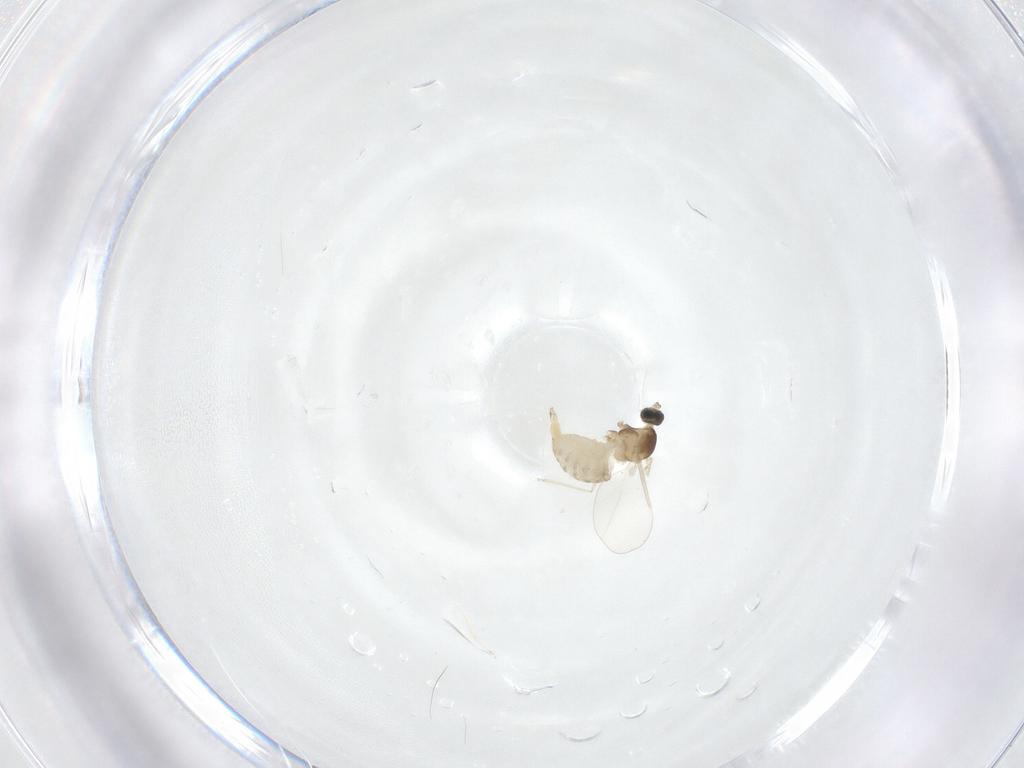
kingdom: Animalia
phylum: Arthropoda
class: Insecta
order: Diptera
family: Cecidomyiidae
